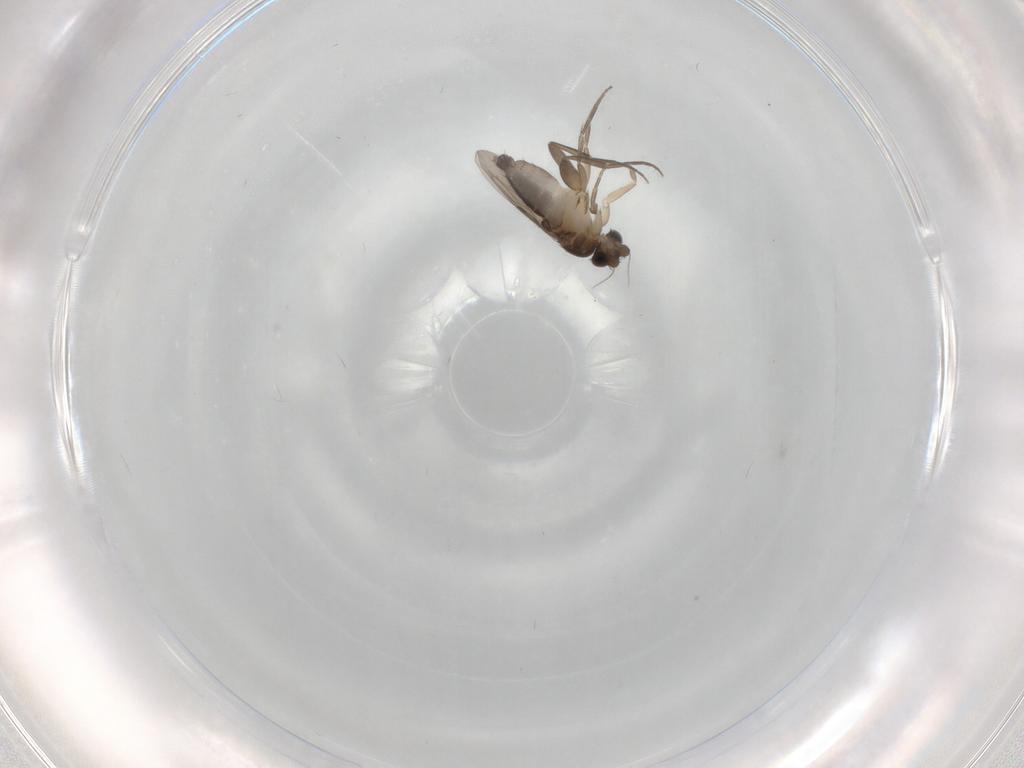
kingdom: Animalia
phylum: Arthropoda
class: Insecta
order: Diptera
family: Phoridae
